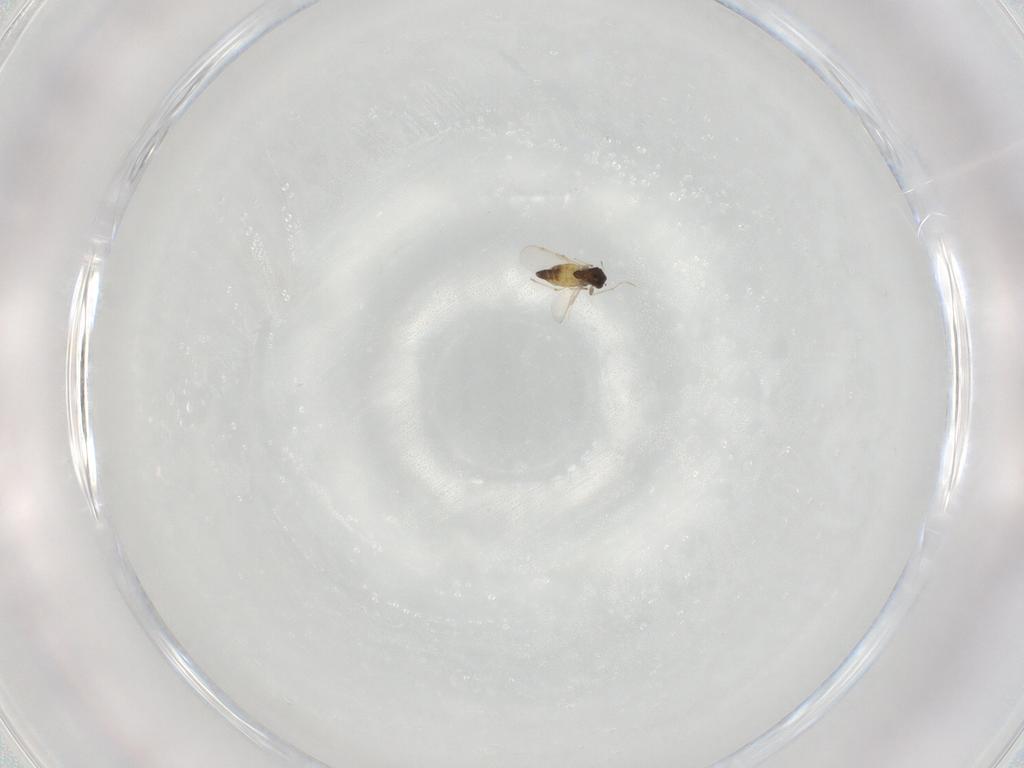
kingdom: Animalia
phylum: Arthropoda
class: Insecta
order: Diptera
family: Chironomidae
